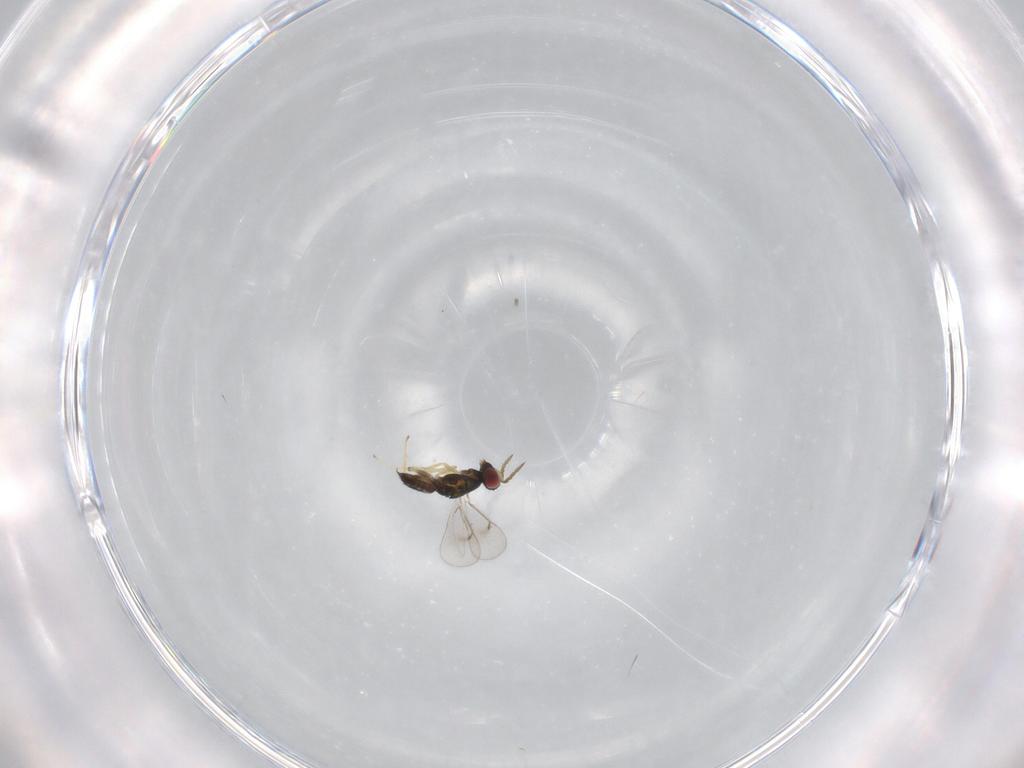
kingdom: Animalia
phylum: Arthropoda
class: Insecta
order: Hymenoptera
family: Eulophidae
